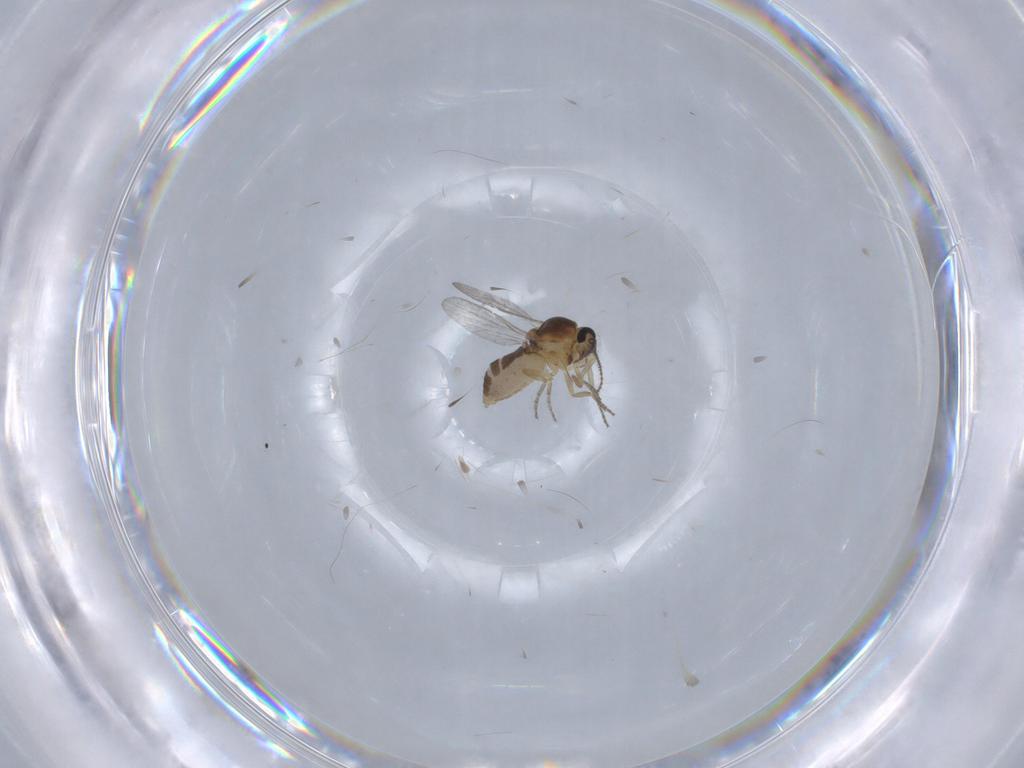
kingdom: Animalia
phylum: Arthropoda
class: Insecta
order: Diptera
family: Ceratopogonidae
